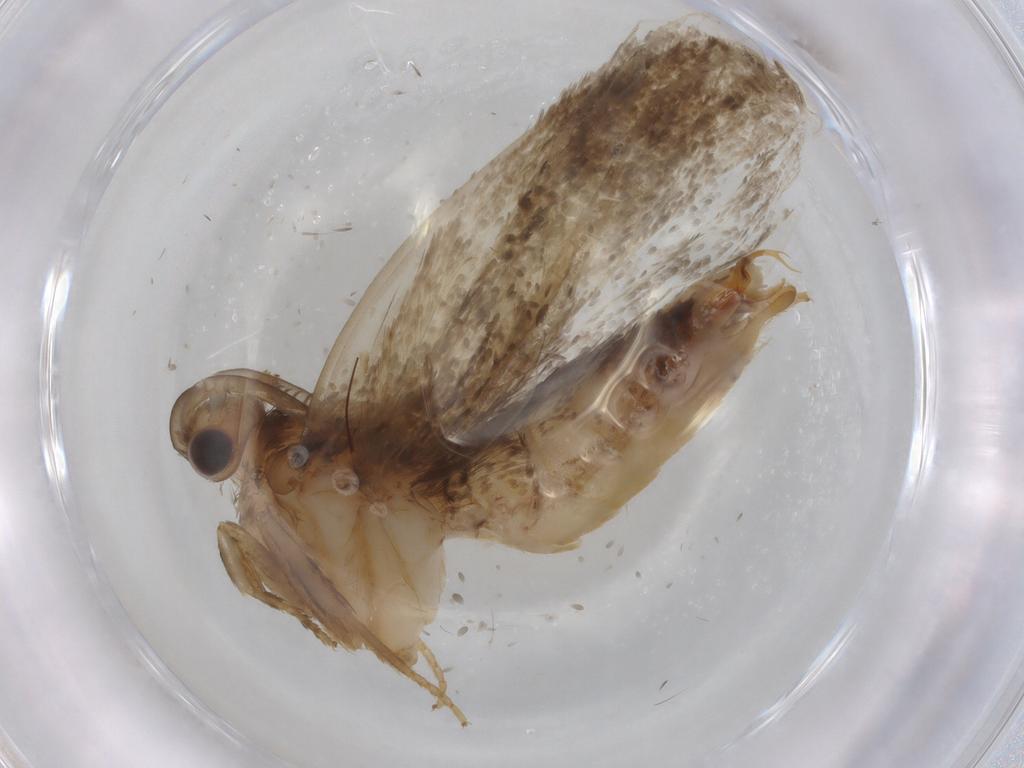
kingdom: Animalia
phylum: Arthropoda
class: Insecta
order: Lepidoptera
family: Tineidae
